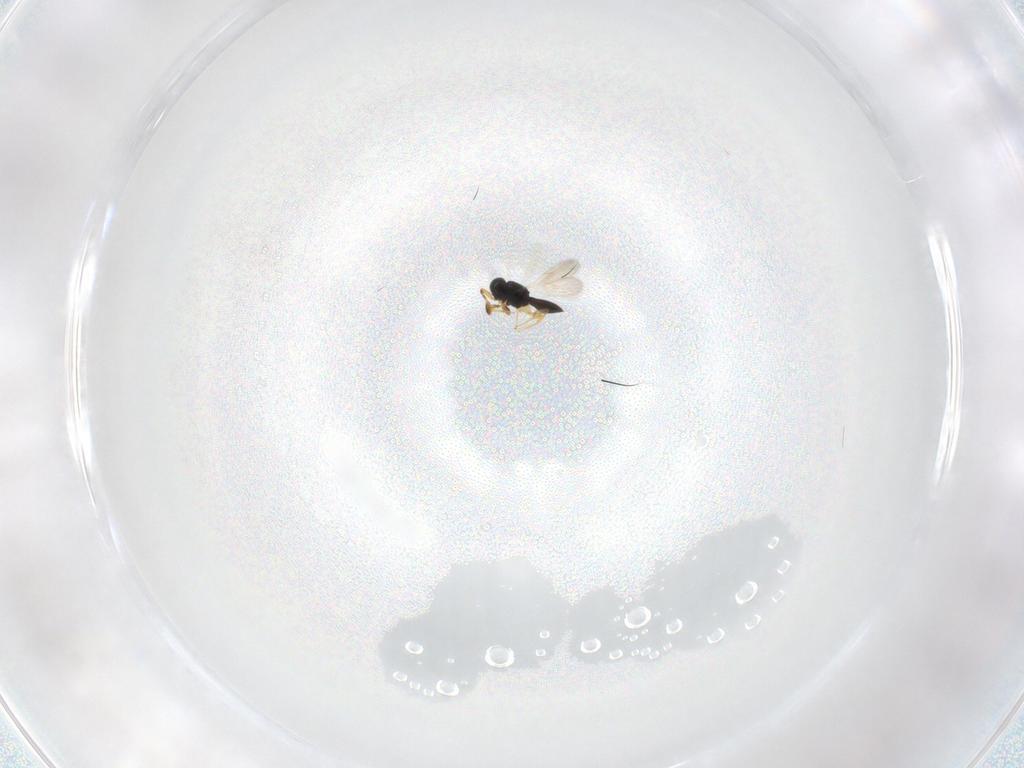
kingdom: Animalia
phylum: Arthropoda
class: Insecta
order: Hymenoptera
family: Scelionidae
